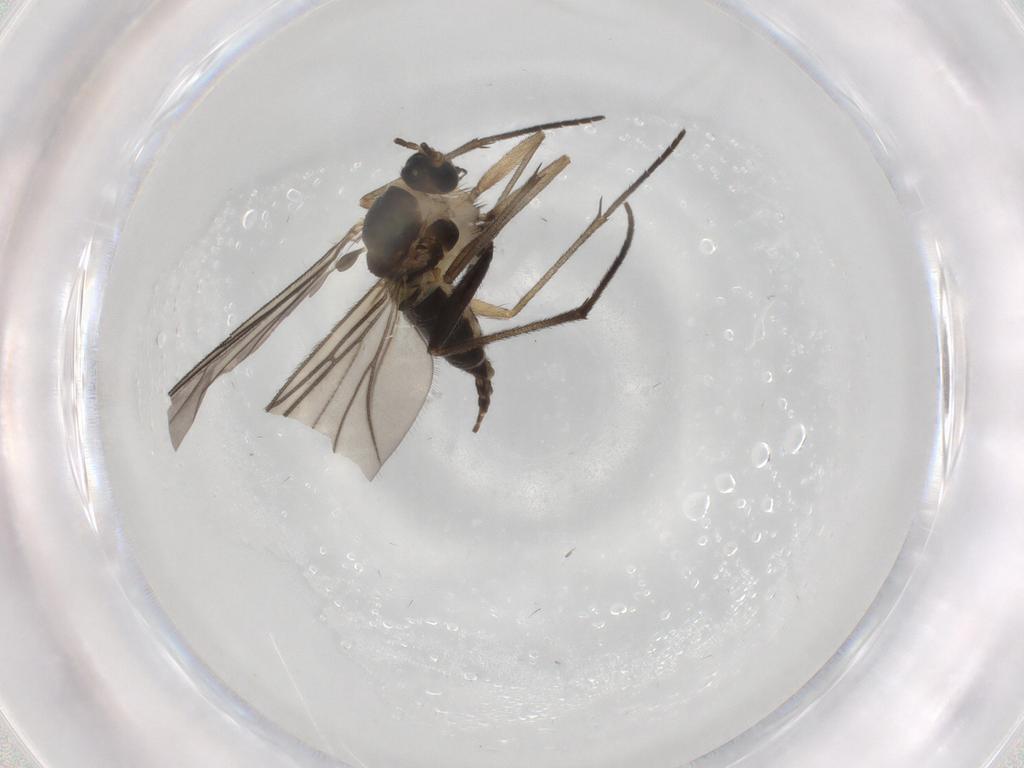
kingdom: Animalia
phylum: Arthropoda
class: Insecta
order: Diptera
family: Sciaridae
